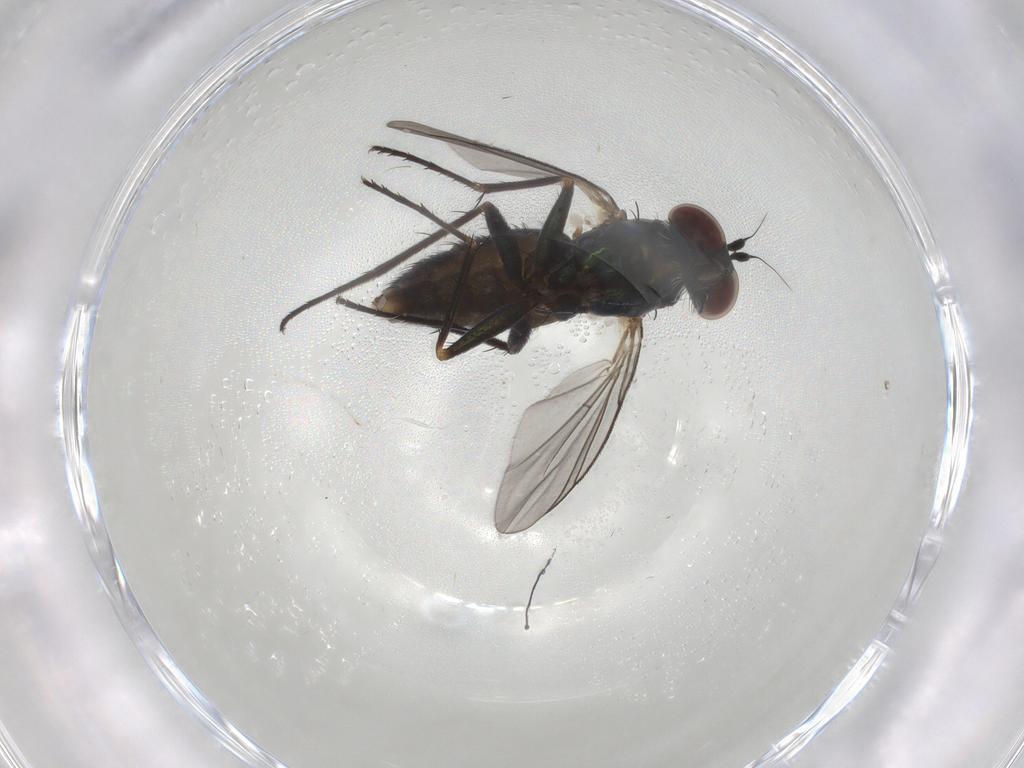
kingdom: Animalia
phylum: Arthropoda
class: Insecta
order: Diptera
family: Dolichopodidae
